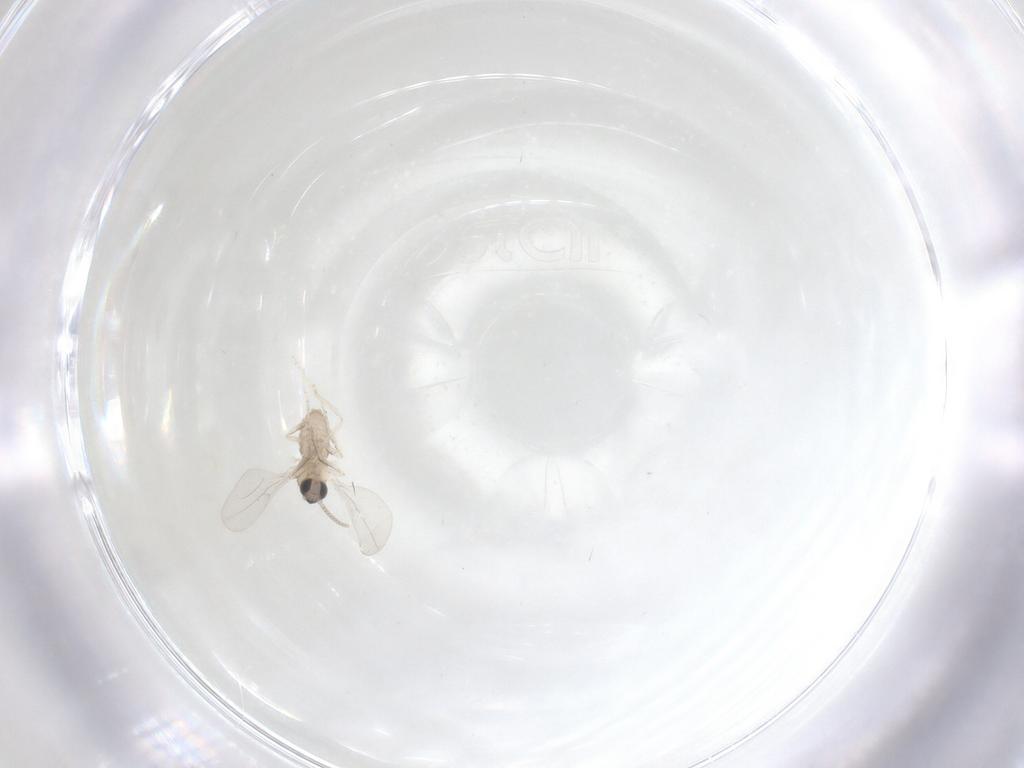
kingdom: Animalia
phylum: Arthropoda
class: Insecta
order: Diptera
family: Cecidomyiidae
